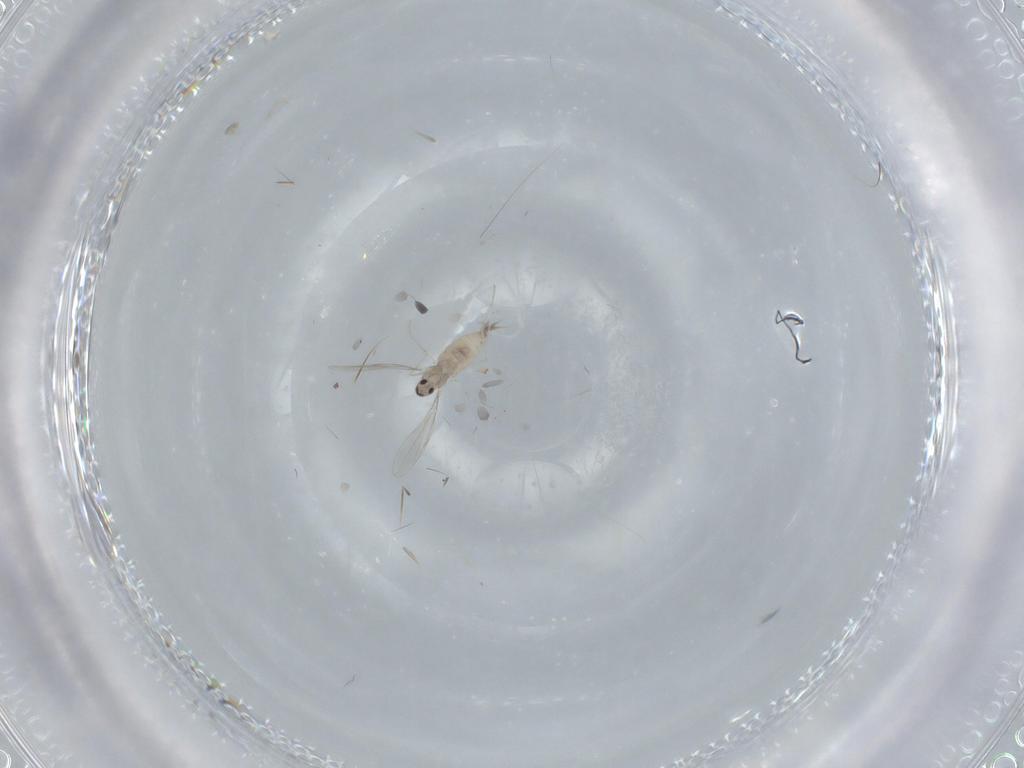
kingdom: Animalia
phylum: Arthropoda
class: Insecta
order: Diptera
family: Cecidomyiidae
